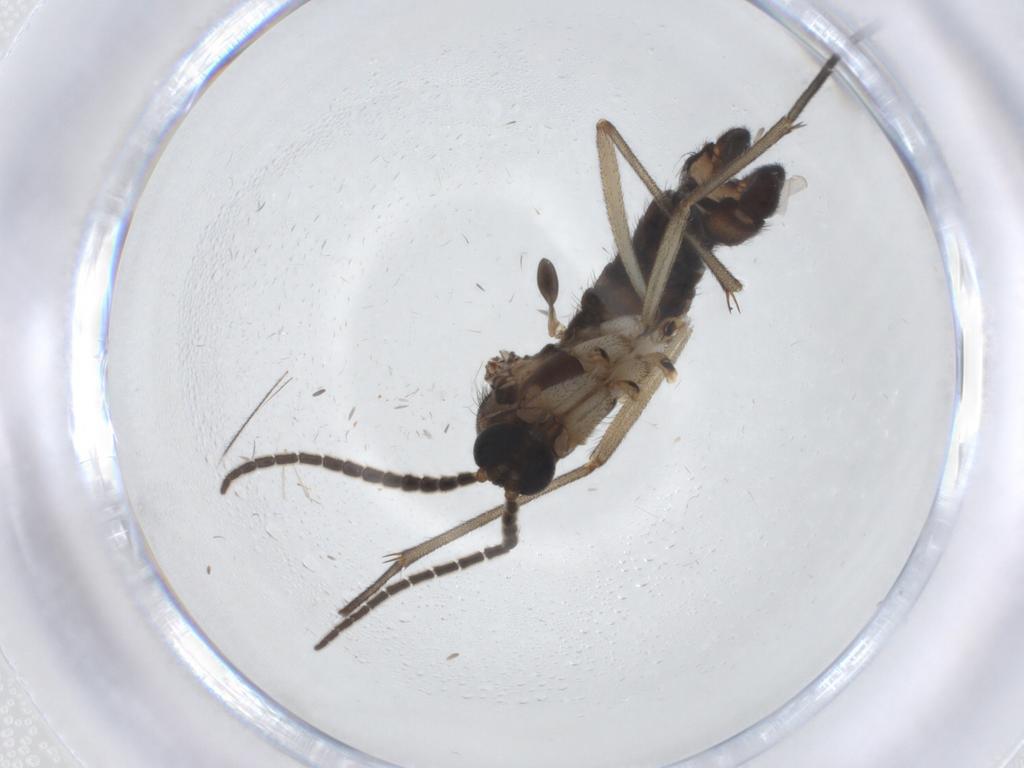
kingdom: Animalia
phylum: Arthropoda
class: Insecta
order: Diptera
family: Sciaridae
